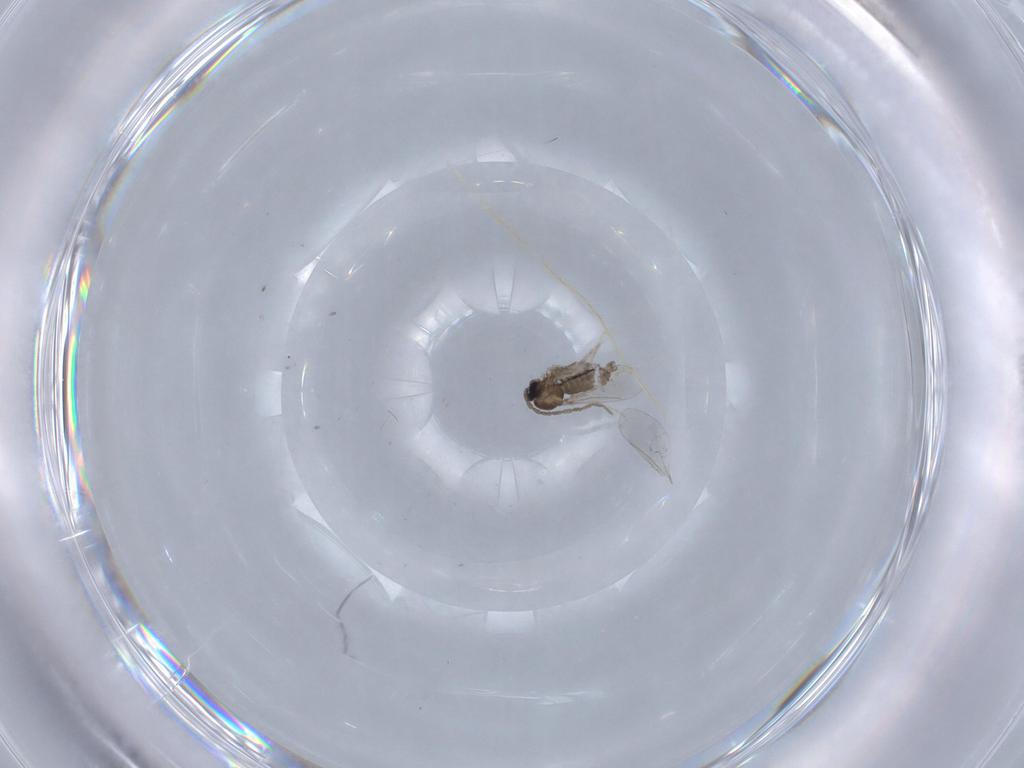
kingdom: Animalia
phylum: Arthropoda
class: Insecta
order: Diptera
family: Cecidomyiidae
